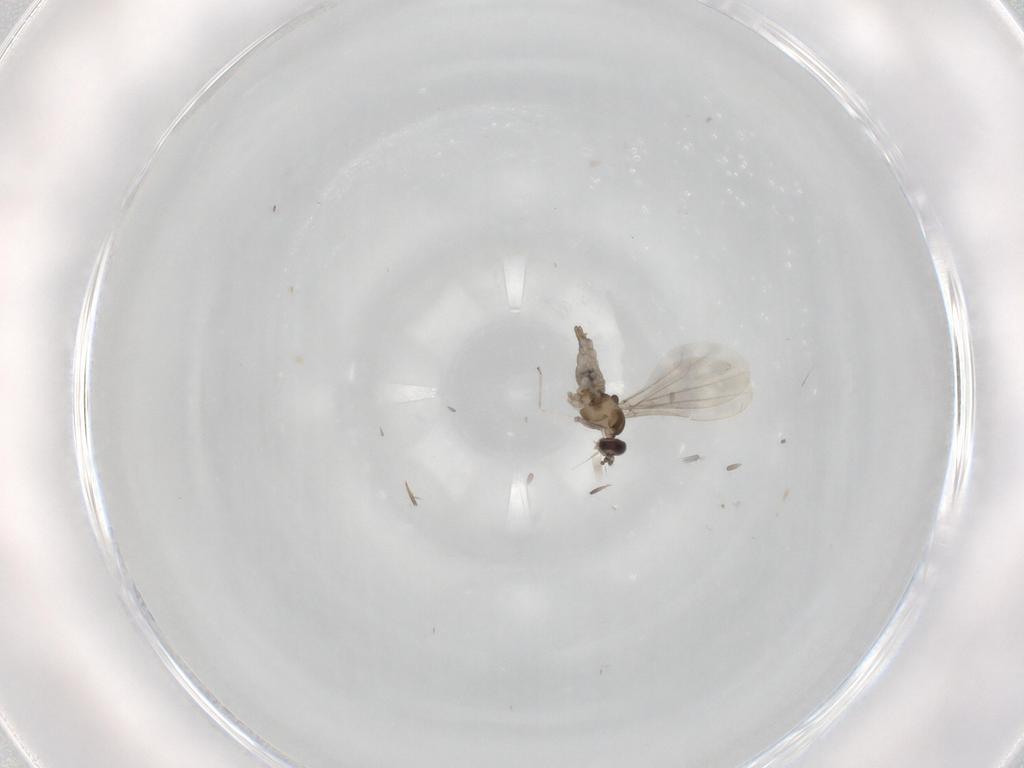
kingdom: Animalia
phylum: Arthropoda
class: Insecta
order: Diptera
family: Cecidomyiidae
